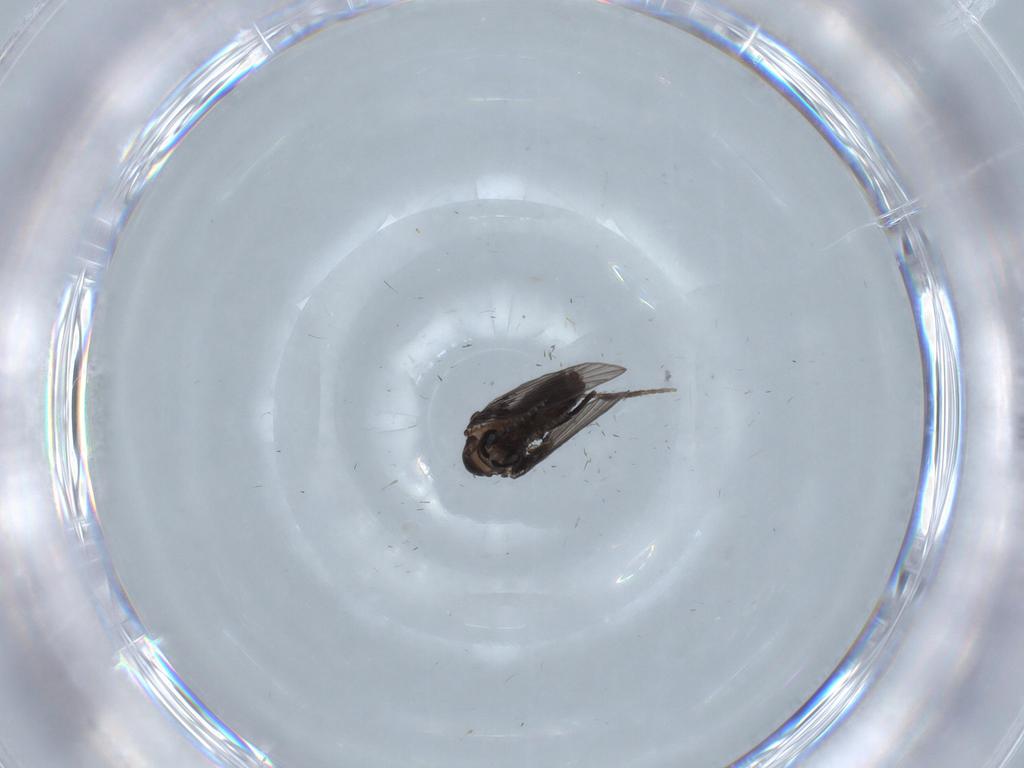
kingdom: Animalia
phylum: Arthropoda
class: Insecta
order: Diptera
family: Psychodidae
